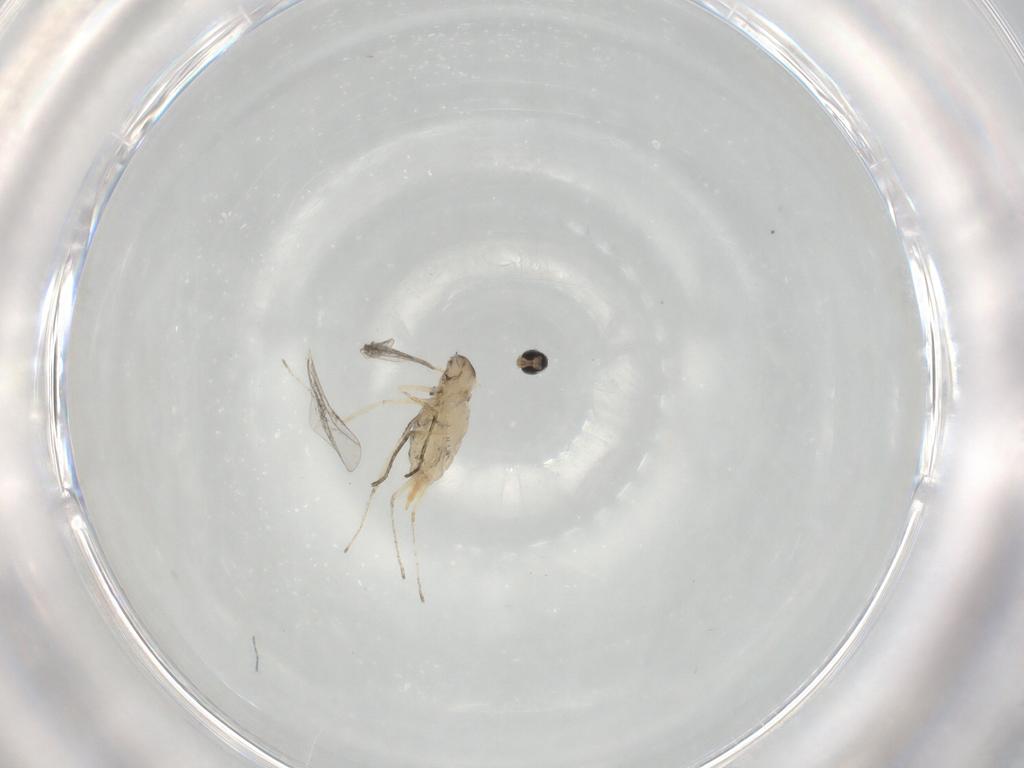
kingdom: Animalia
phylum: Arthropoda
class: Insecta
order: Diptera
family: Cecidomyiidae
